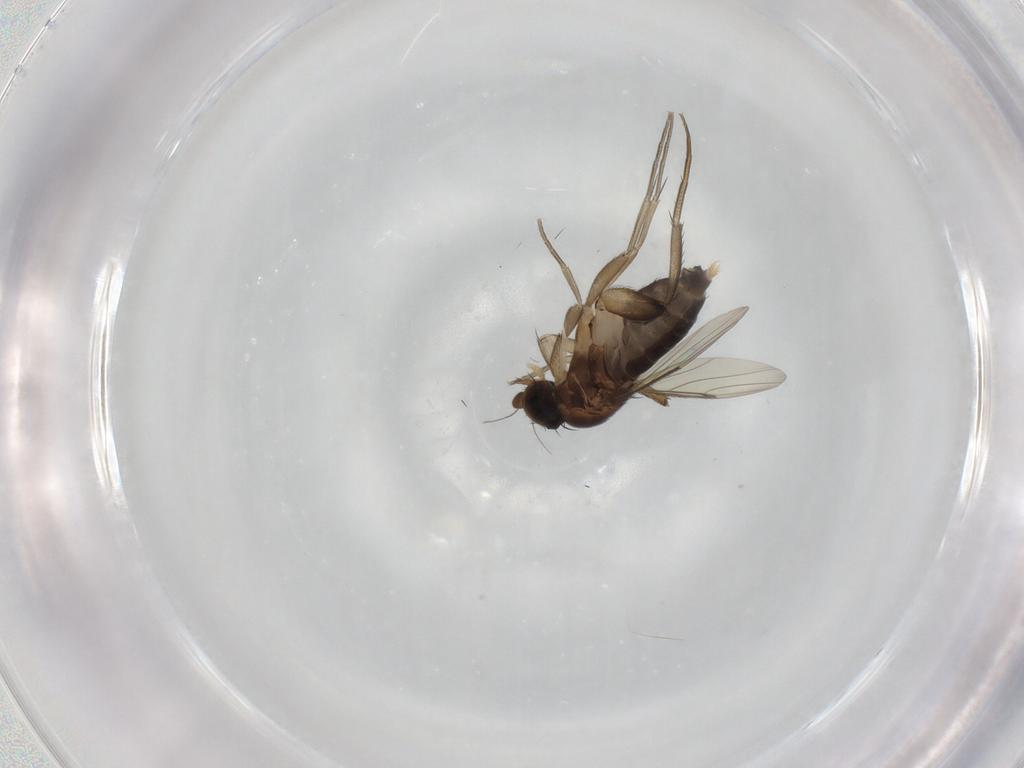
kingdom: Animalia
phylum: Arthropoda
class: Insecta
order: Diptera
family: Phoridae
